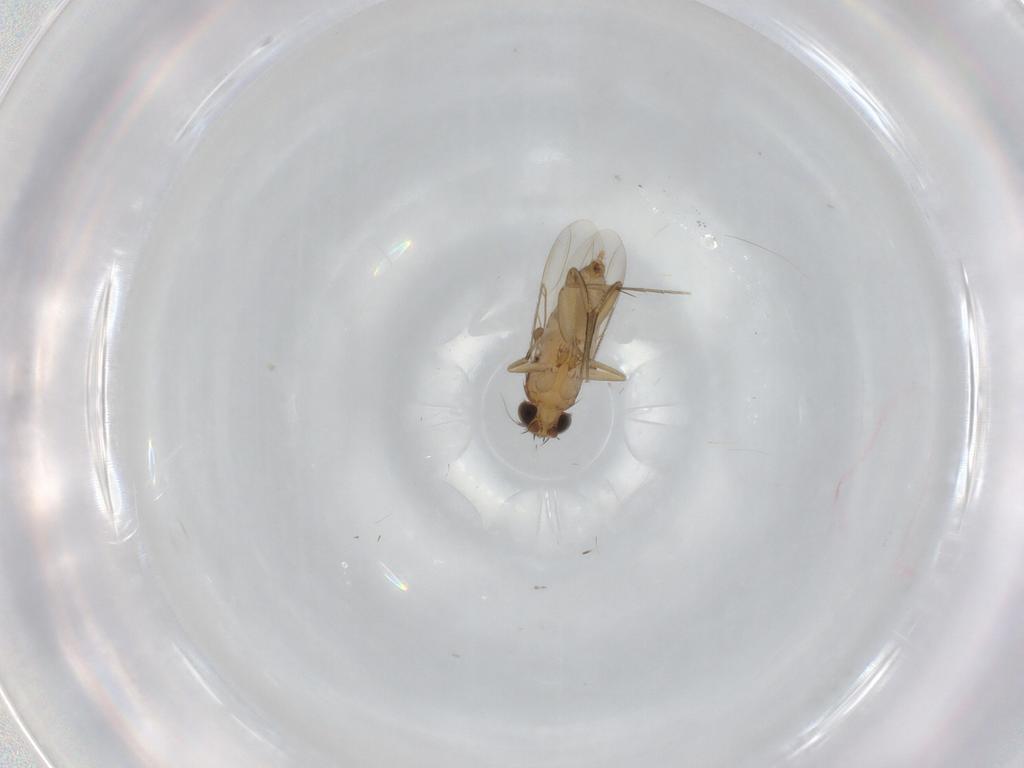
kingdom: Animalia
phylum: Arthropoda
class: Insecta
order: Diptera
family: Phoridae
